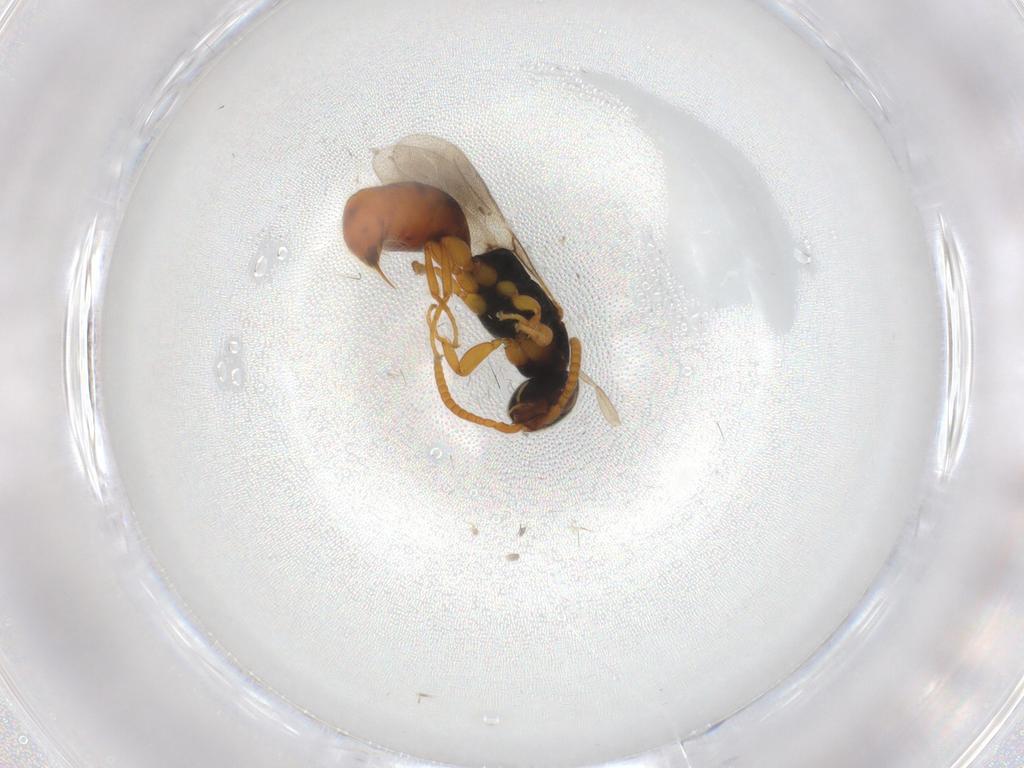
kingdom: Animalia
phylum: Arthropoda
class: Insecta
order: Hymenoptera
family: Bethylidae
